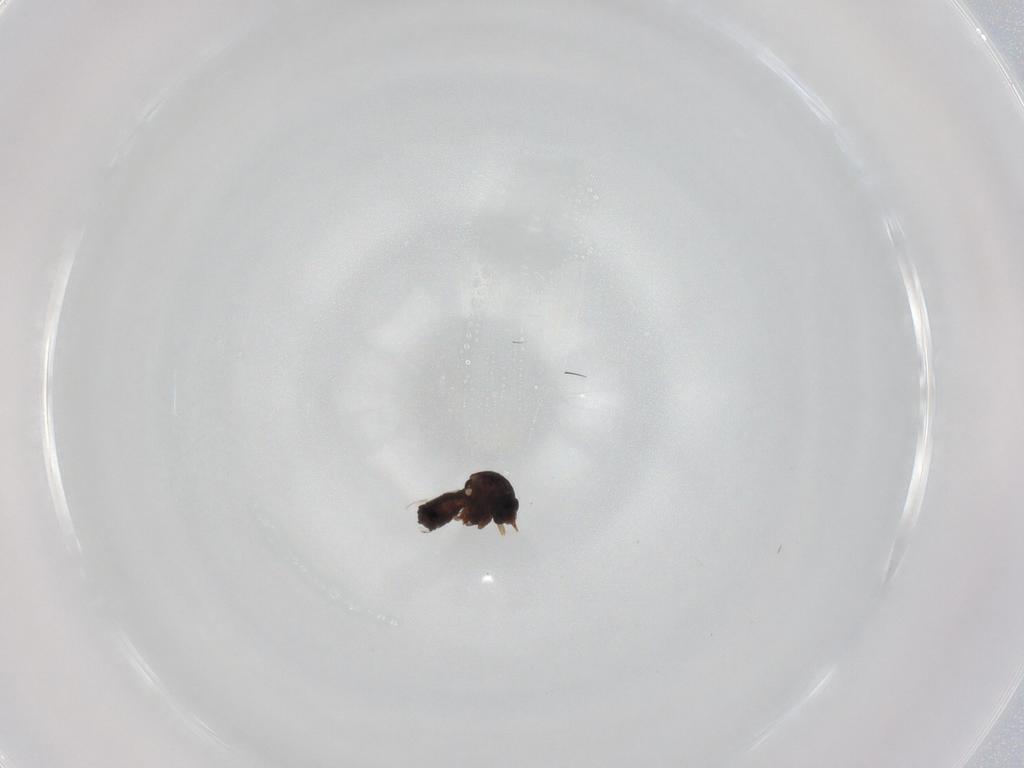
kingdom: Animalia
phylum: Arthropoda
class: Insecta
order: Diptera
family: Ceratopogonidae
